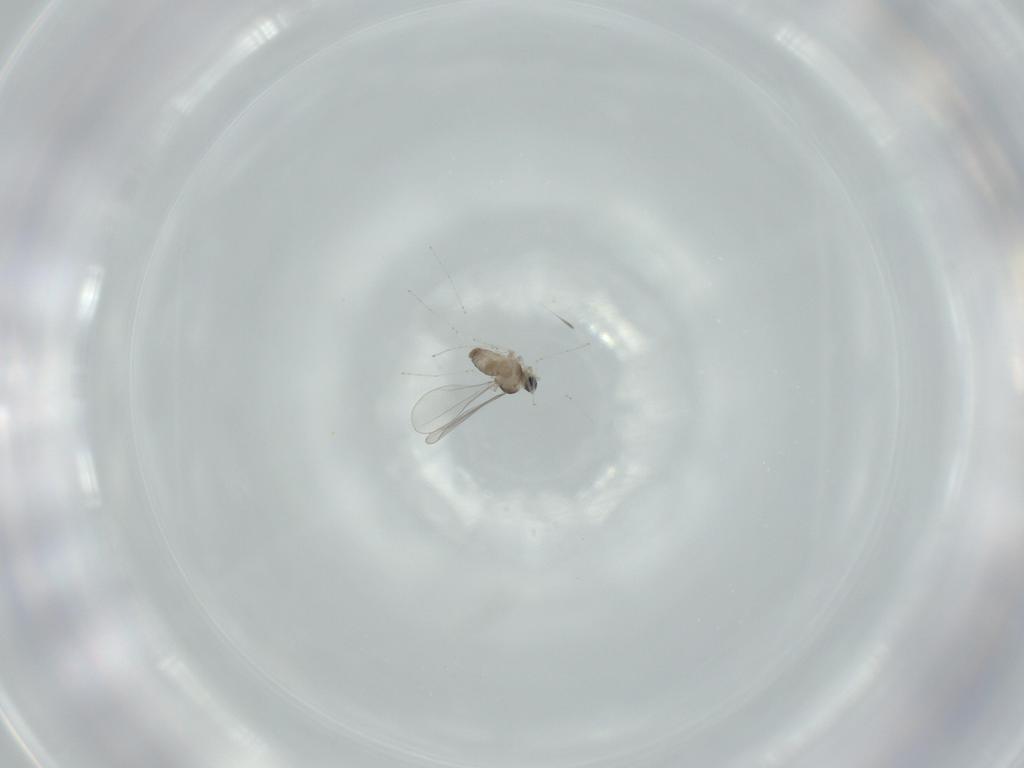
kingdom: Animalia
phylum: Arthropoda
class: Insecta
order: Diptera
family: Cecidomyiidae
